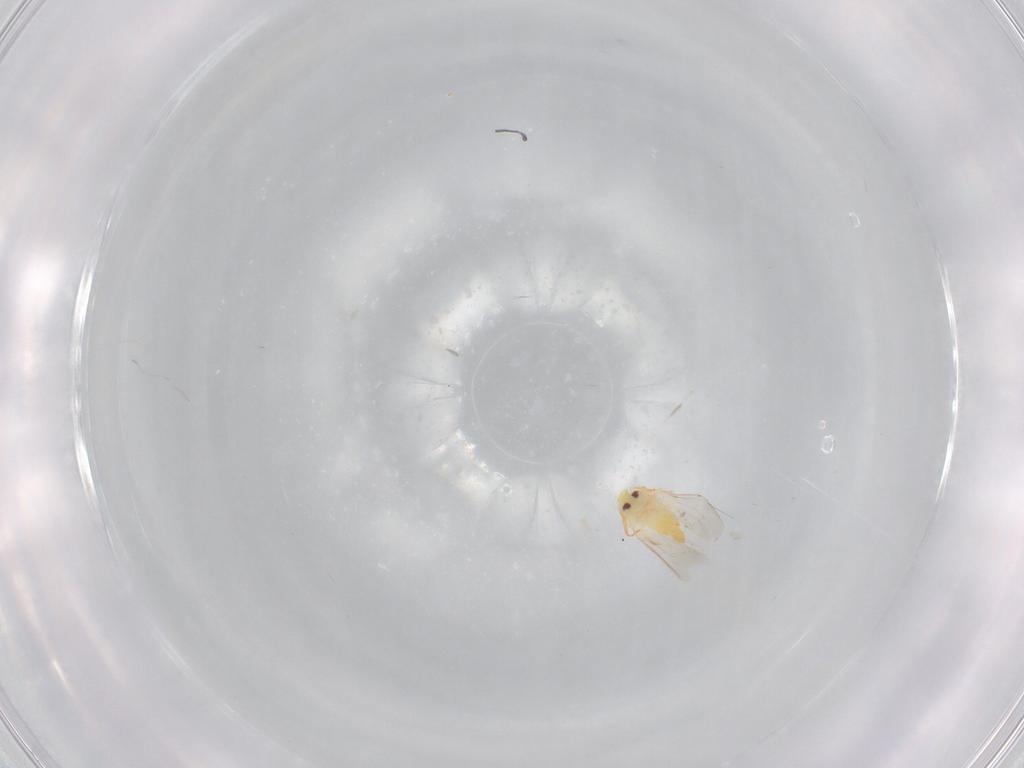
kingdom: Animalia
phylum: Arthropoda
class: Insecta
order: Hemiptera
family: Aleyrodidae
